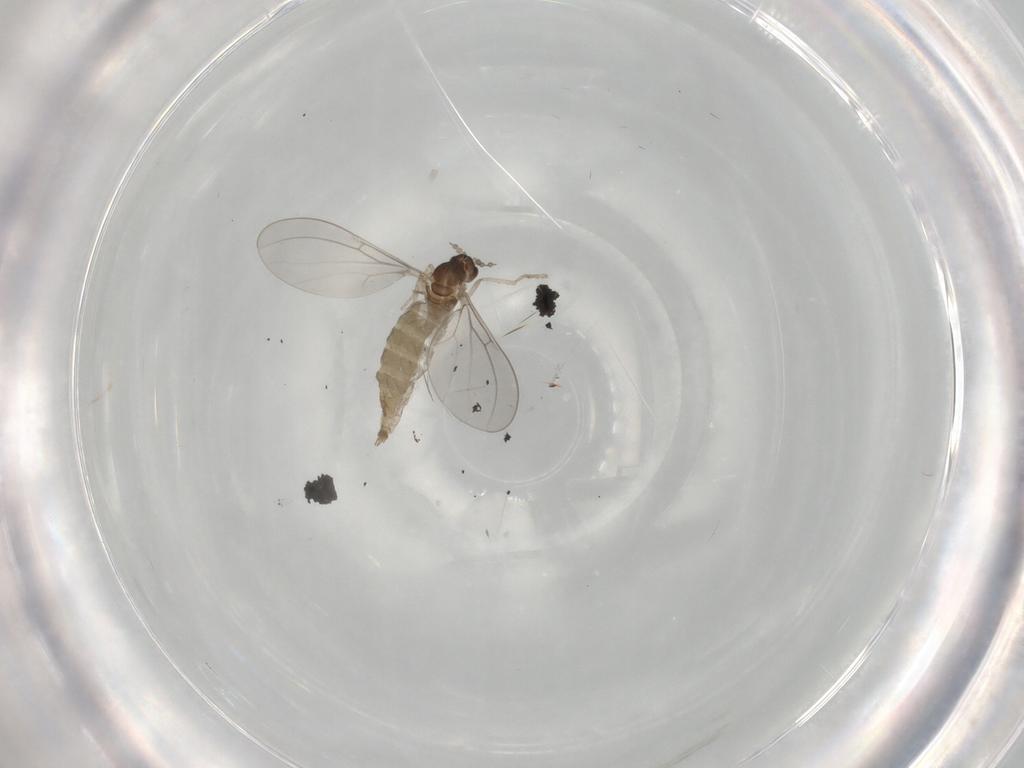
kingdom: Animalia
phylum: Arthropoda
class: Insecta
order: Diptera
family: Cecidomyiidae
